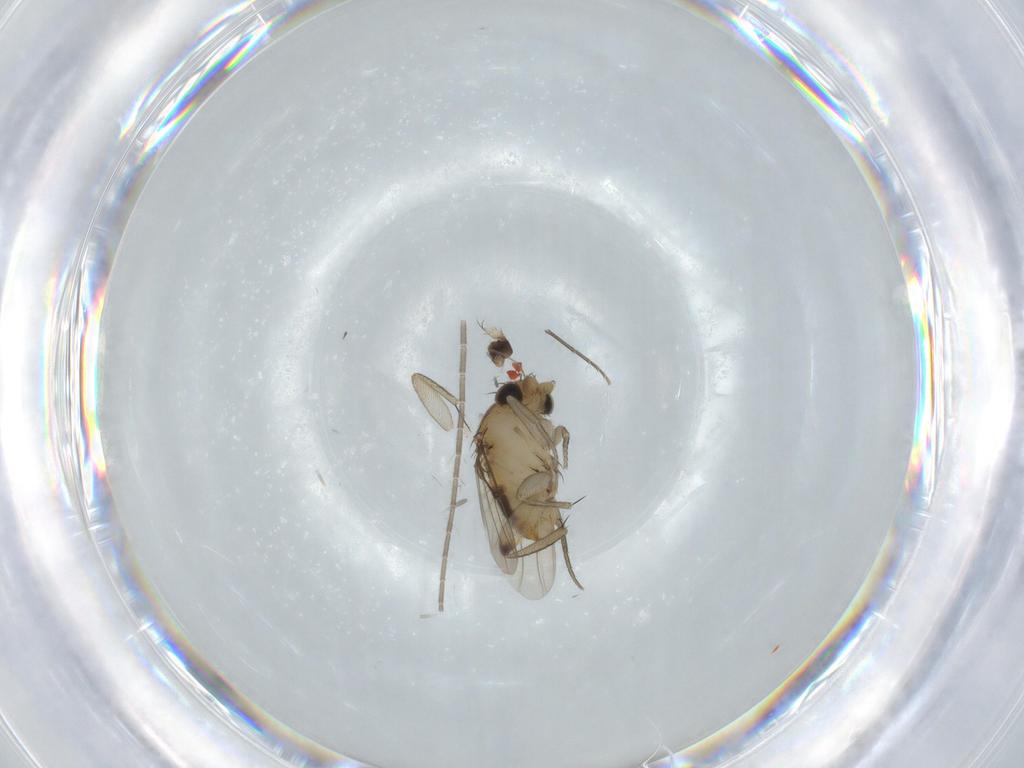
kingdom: Animalia
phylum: Arthropoda
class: Insecta
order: Diptera
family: Phoridae
